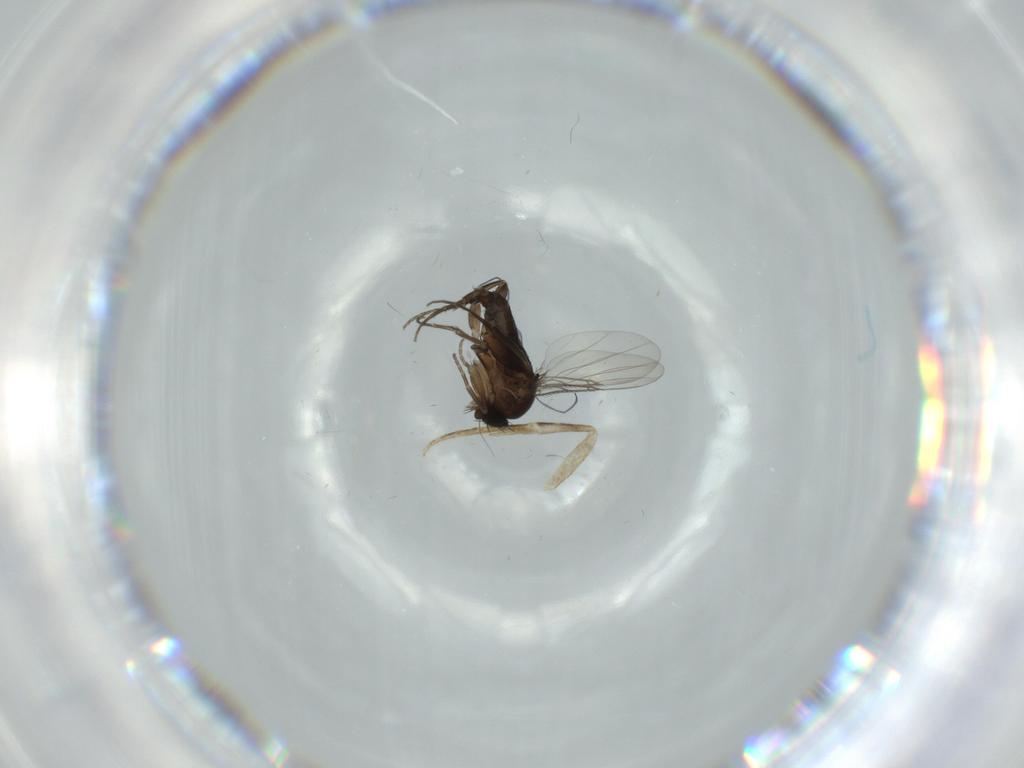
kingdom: Animalia
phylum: Arthropoda
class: Insecta
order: Diptera
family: Phoridae
